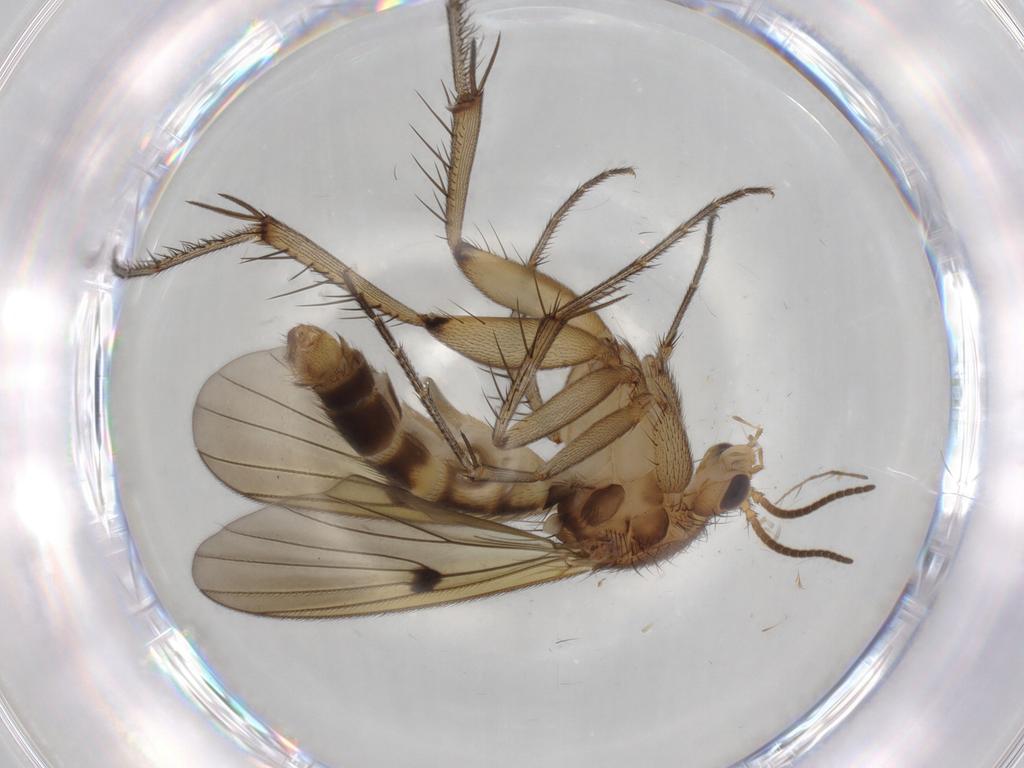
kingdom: Animalia
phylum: Arthropoda
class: Insecta
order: Diptera
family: Mycetophilidae
